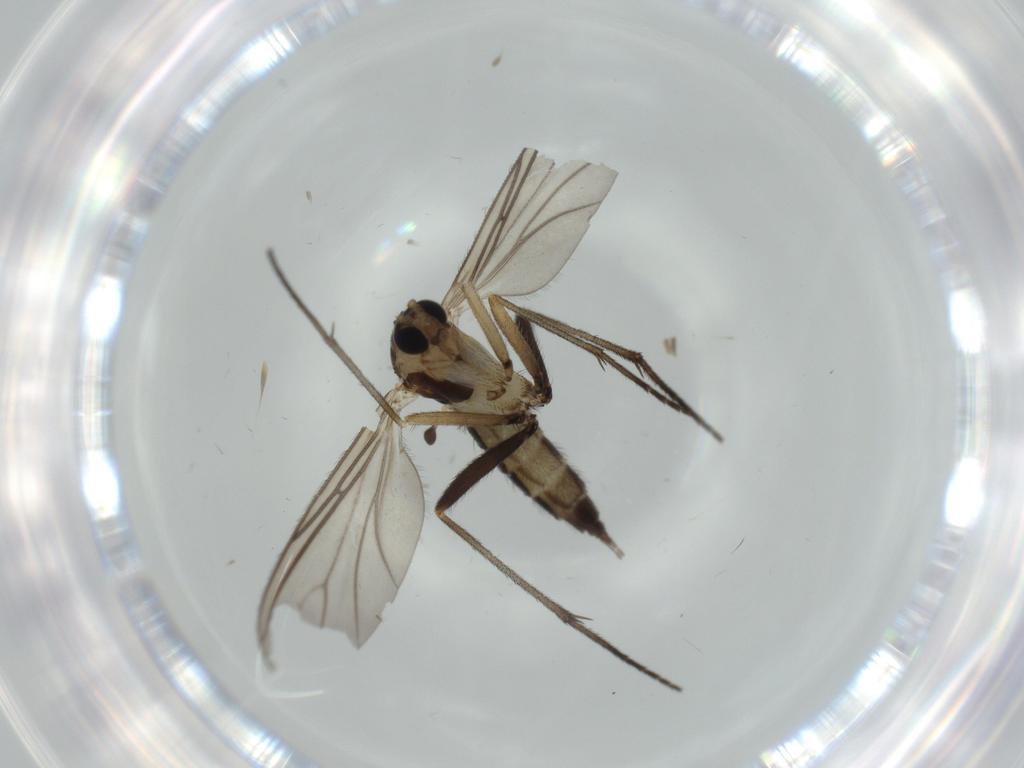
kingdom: Animalia
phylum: Arthropoda
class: Insecta
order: Diptera
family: Sciaridae
